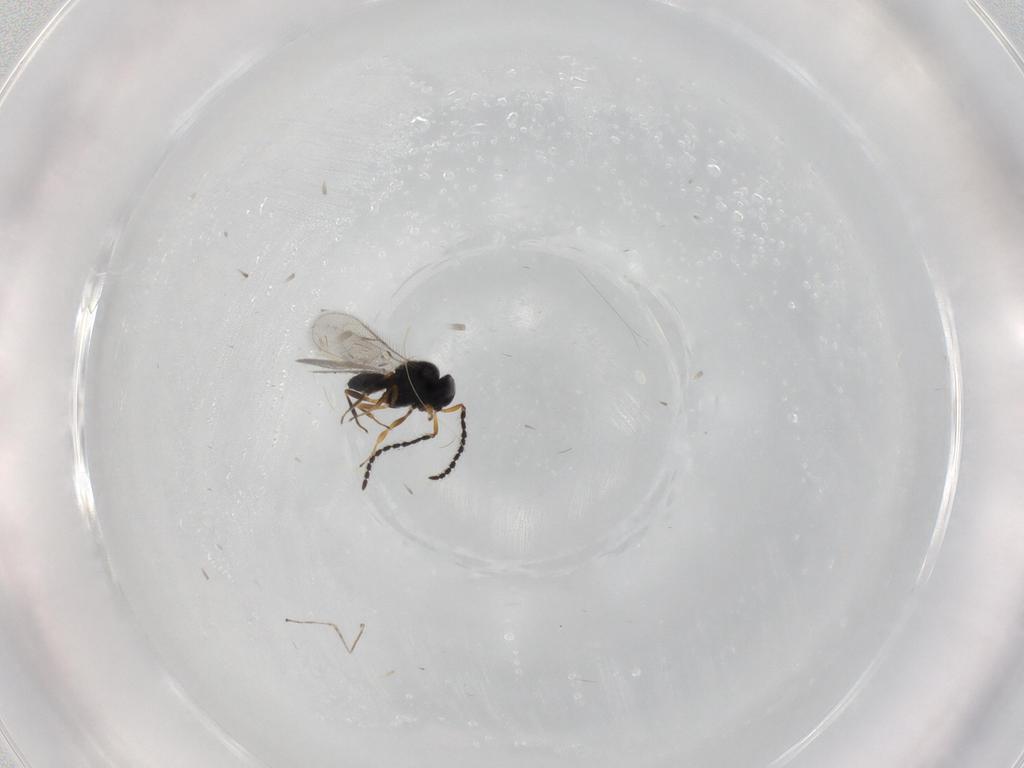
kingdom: Animalia
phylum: Arthropoda
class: Insecta
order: Hymenoptera
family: Scelionidae
